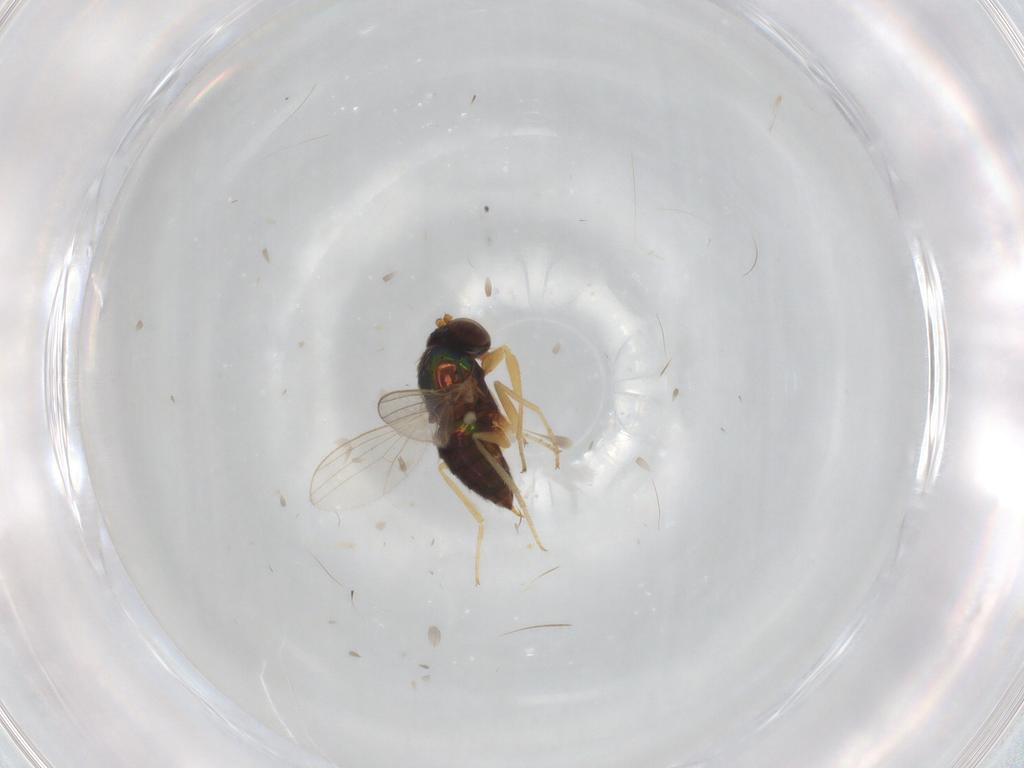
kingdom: Animalia
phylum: Arthropoda
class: Insecta
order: Diptera
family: Dolichopodidae
